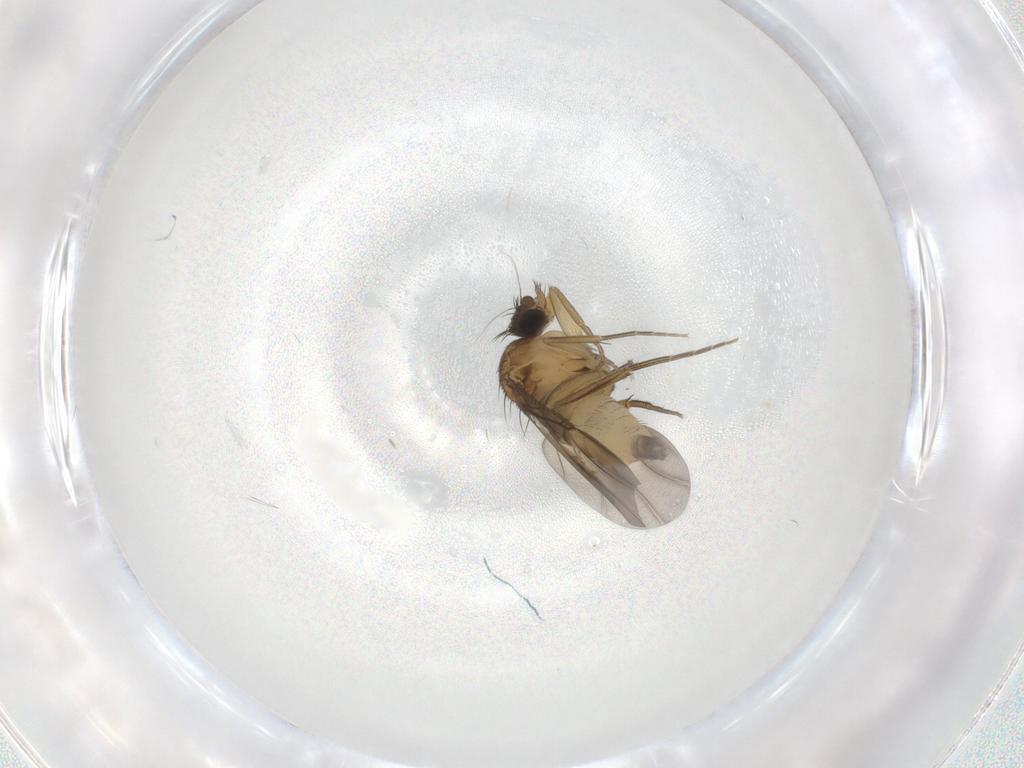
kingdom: Animalia
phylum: Arthropoda
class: Insecta
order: Diptera
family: Phoridae
